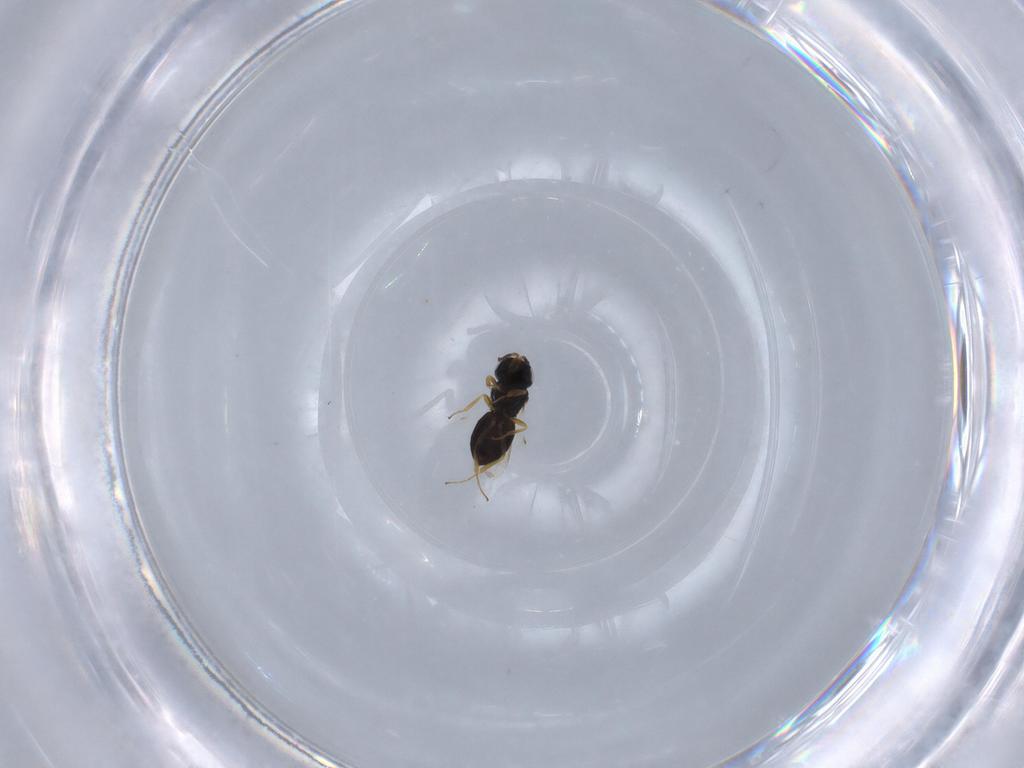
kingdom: Animalia
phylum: Arthropoda
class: Insecta
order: Hymenoptera
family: Scelionidae
